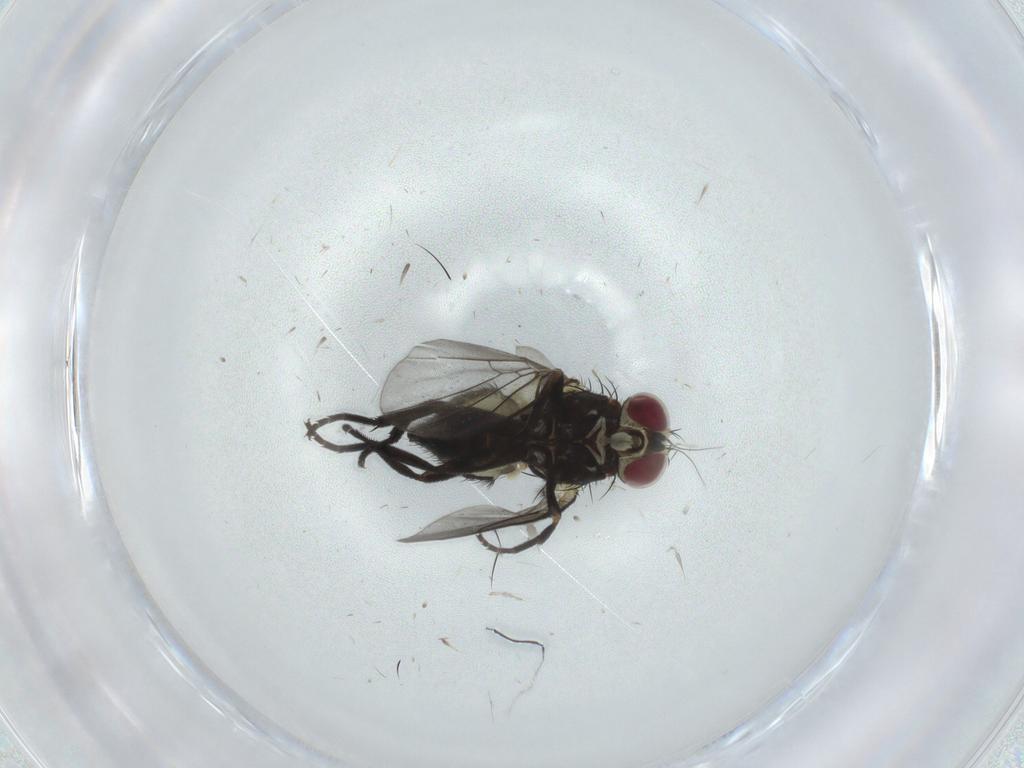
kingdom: Animalia
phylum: Arthropoda
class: Insecta
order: Diptera
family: Agromyzidae
